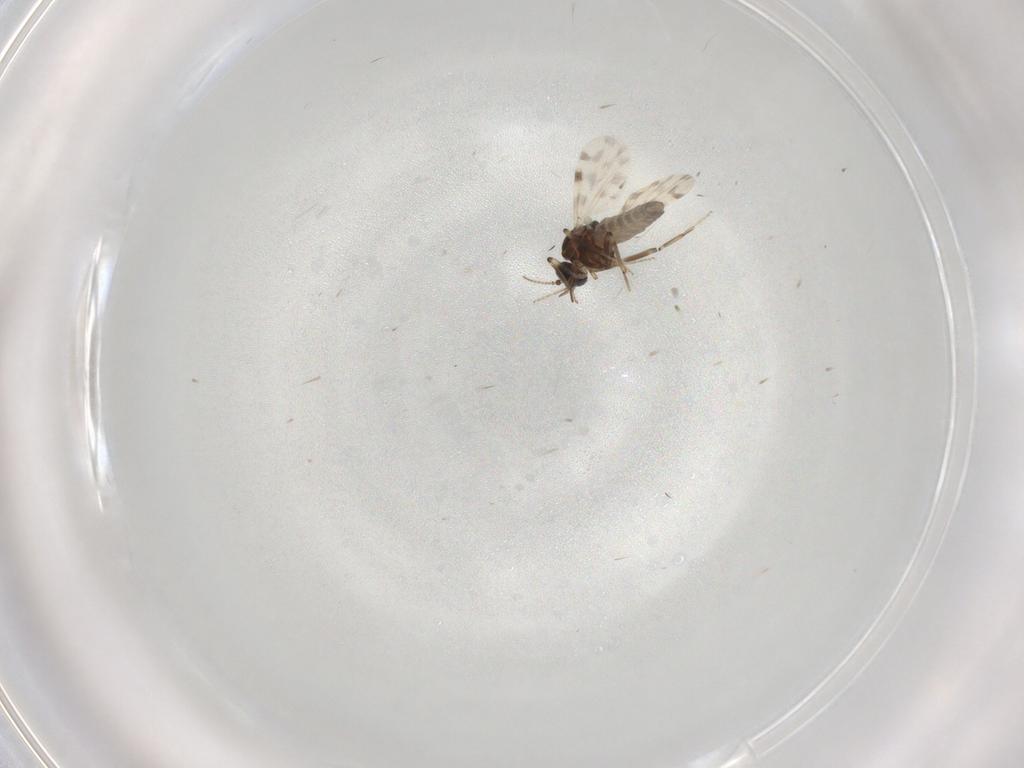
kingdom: Animalia
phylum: Arthropoda
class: Insecta
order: Diptera
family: Ceratopogonidae
